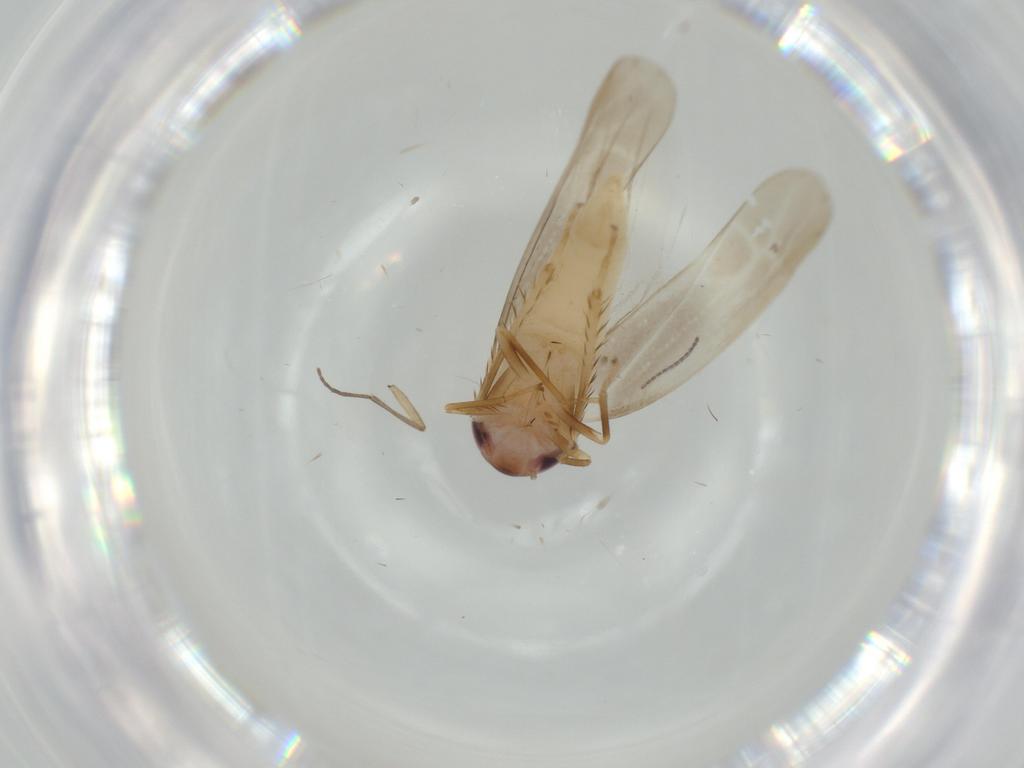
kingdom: Animalia
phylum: Arthropoda
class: Insecta
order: Hemiptera
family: Cicadellidae
